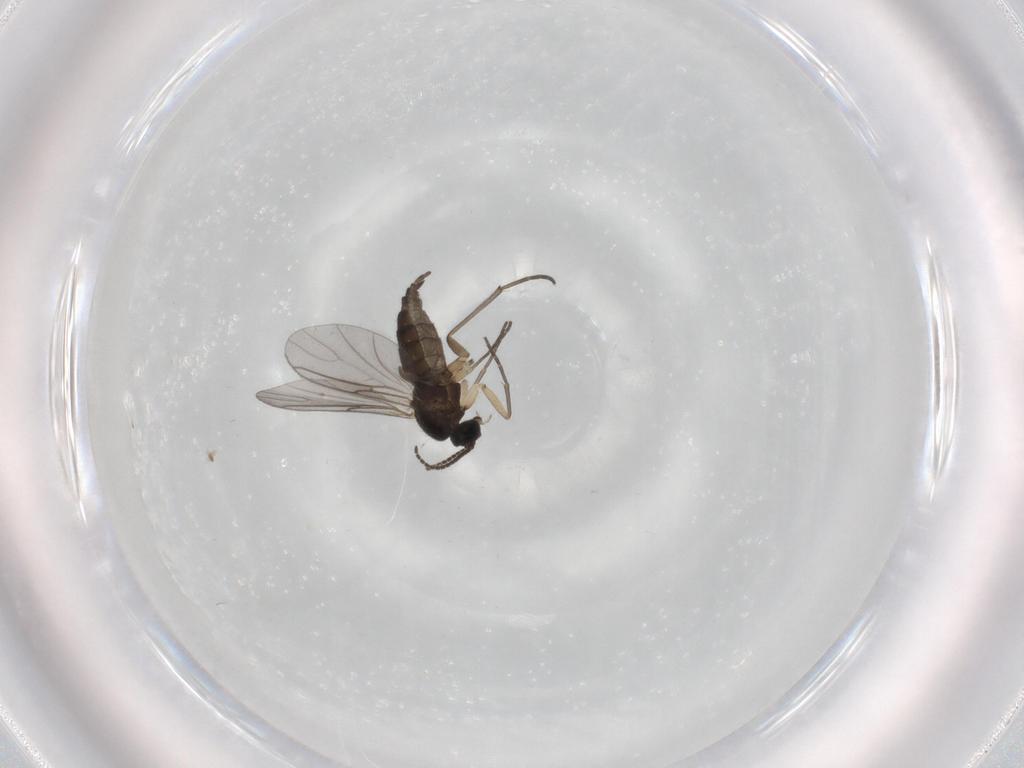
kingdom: Animalia
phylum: Arthropoda
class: Insecta
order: Diptera
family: Sciaridae
